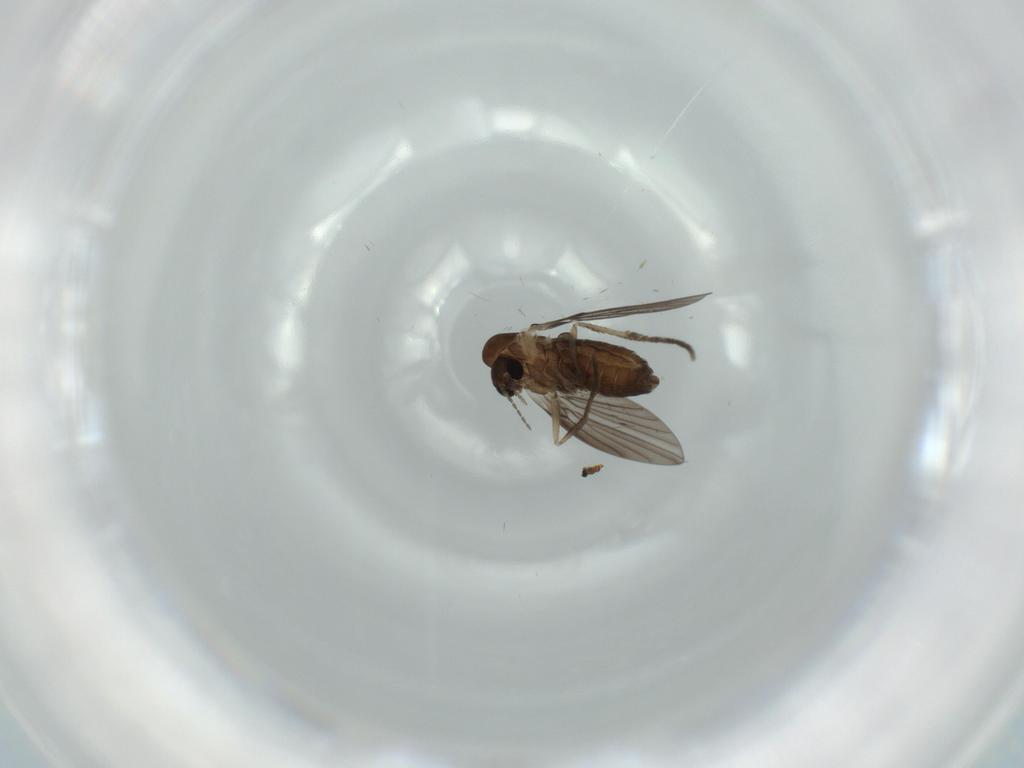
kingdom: Animalia
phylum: Arthropoda
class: Insecta
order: Diptera
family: Psychodidae
